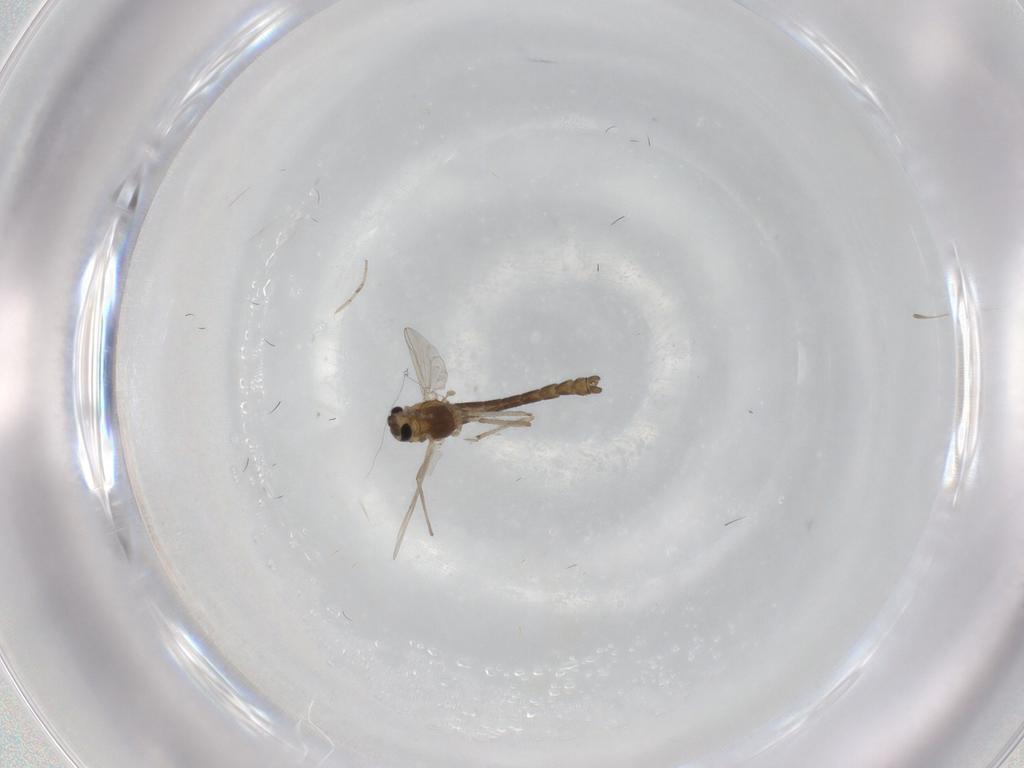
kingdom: Animalia
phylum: Arthropoda
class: Insecta
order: Diptera
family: Chironomidae
